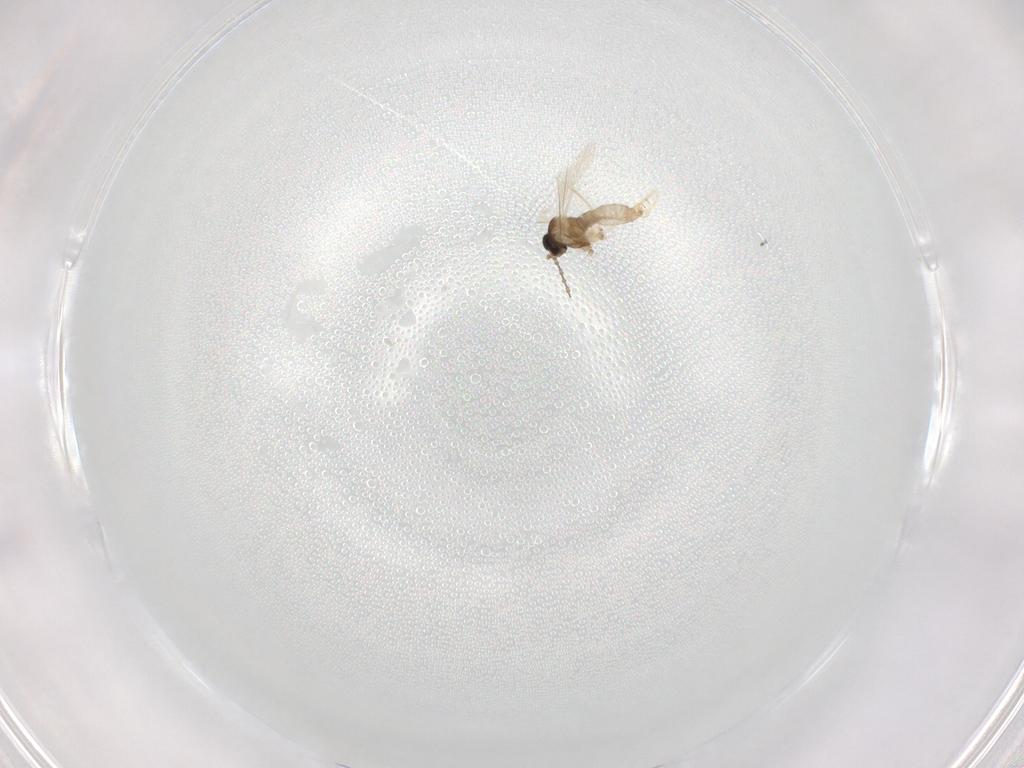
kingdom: Animalia
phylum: Arthropoda
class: Insecta
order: Diptera
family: Cecidomyiidae
